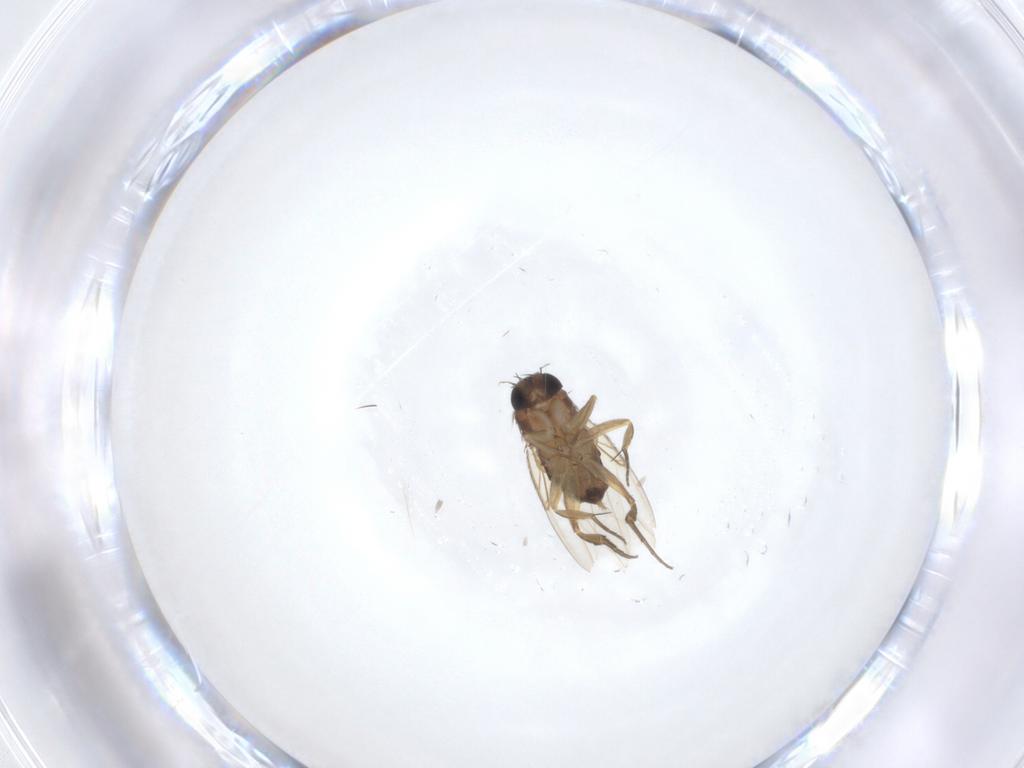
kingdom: Animalia
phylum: Arthropoda
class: Insecta
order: Diptera
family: Phoridae
